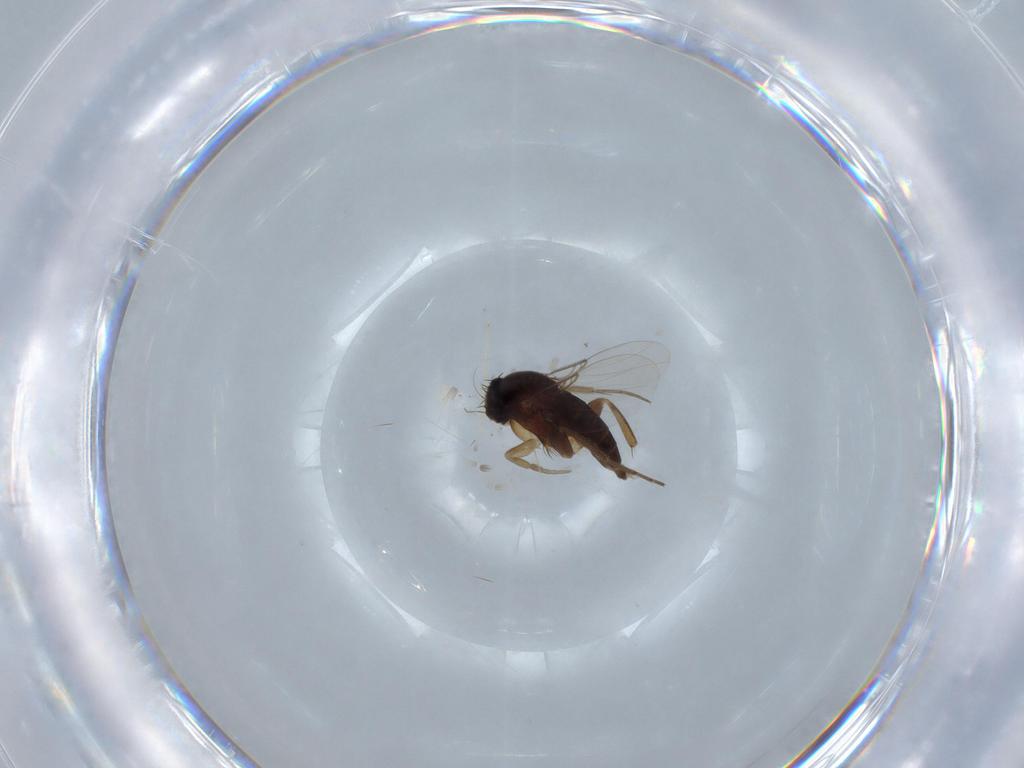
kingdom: Animalia
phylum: Arthropoda
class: Insecta
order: Diptera
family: Phoridae
